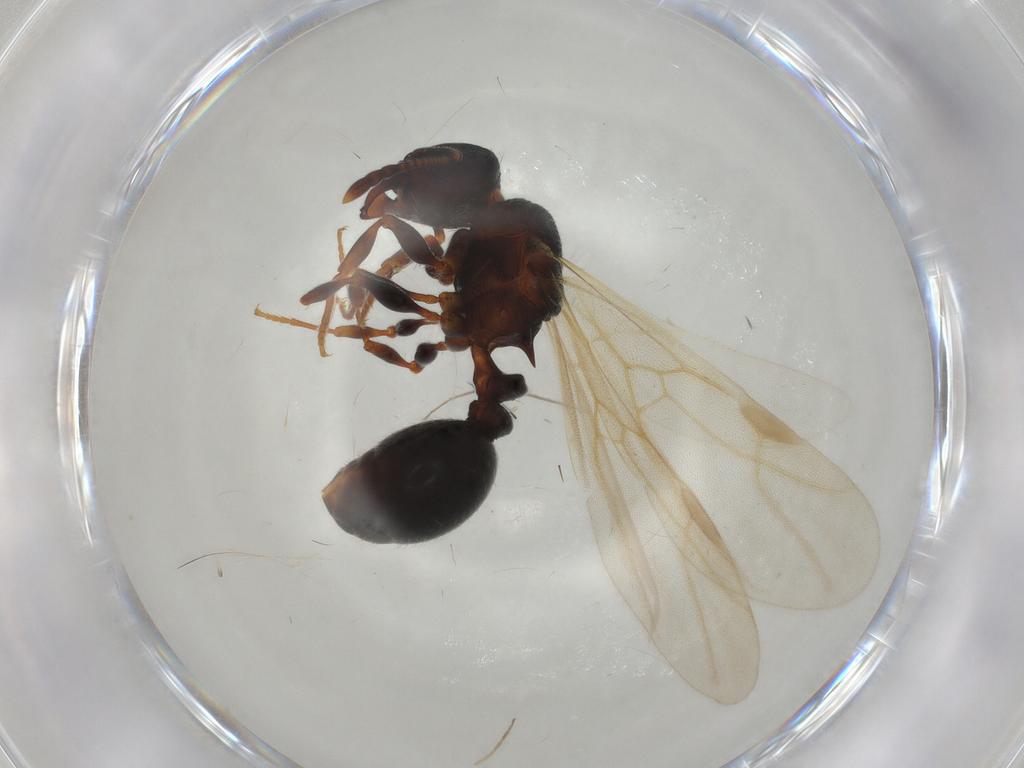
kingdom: Animalia
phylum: Arthropoda
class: Insecta
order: Hymenoptera
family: Formicidae
